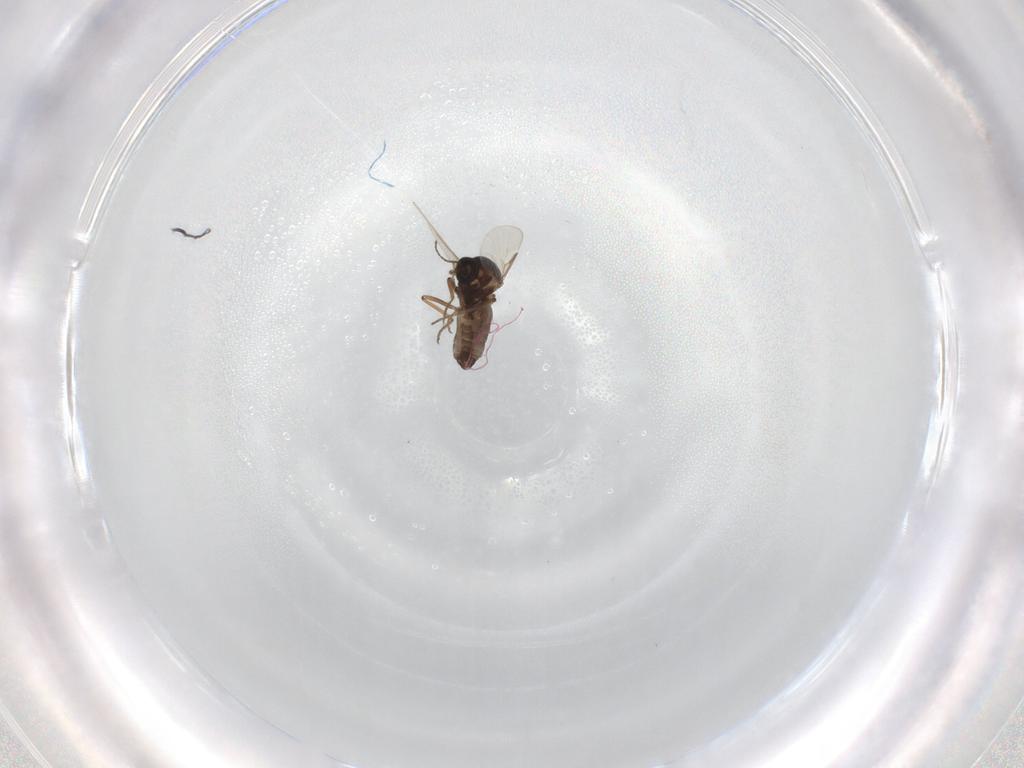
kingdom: Animalia
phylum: Arthropoda
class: Insecta
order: Diptera
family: Ceratopogonidae
